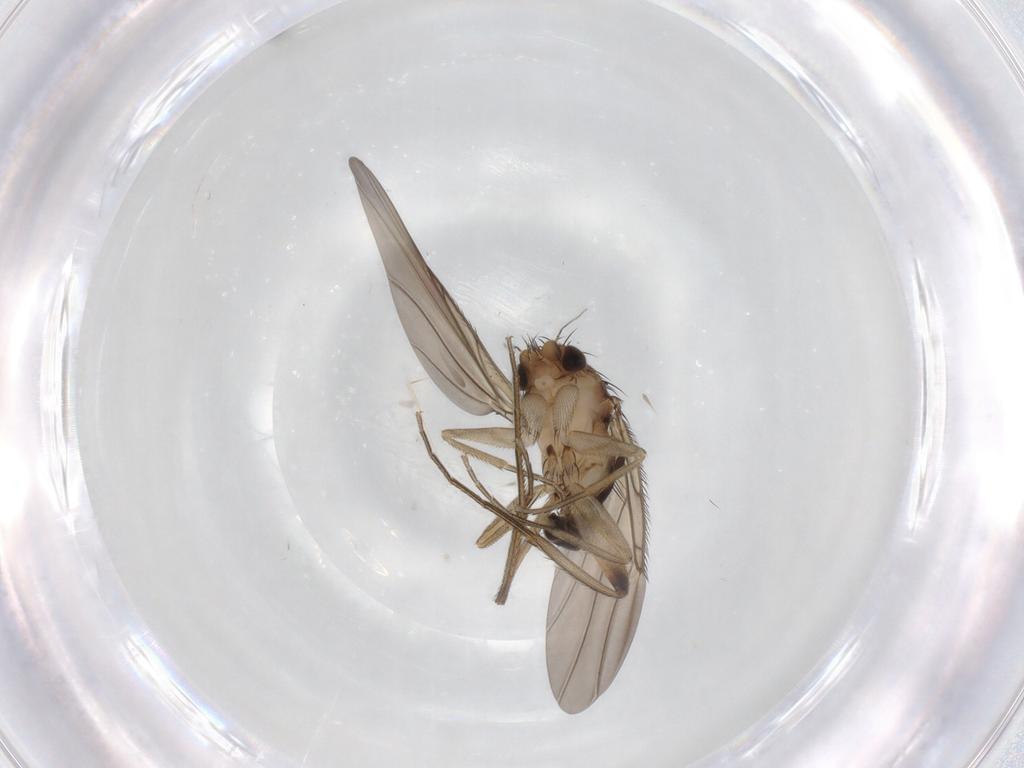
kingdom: Animalia
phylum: Arthropoda
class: Insecta
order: Diptera
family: Phoridae
